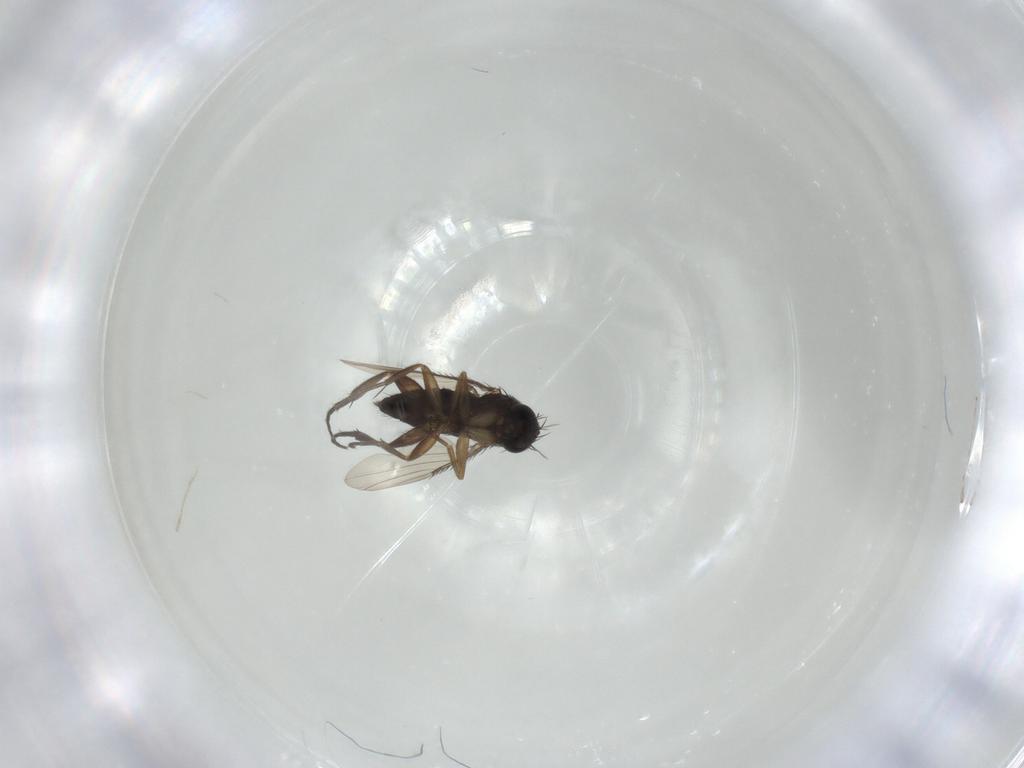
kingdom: Animalia
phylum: Arthropoda
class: Insecta
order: Diptera
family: Phoridae
